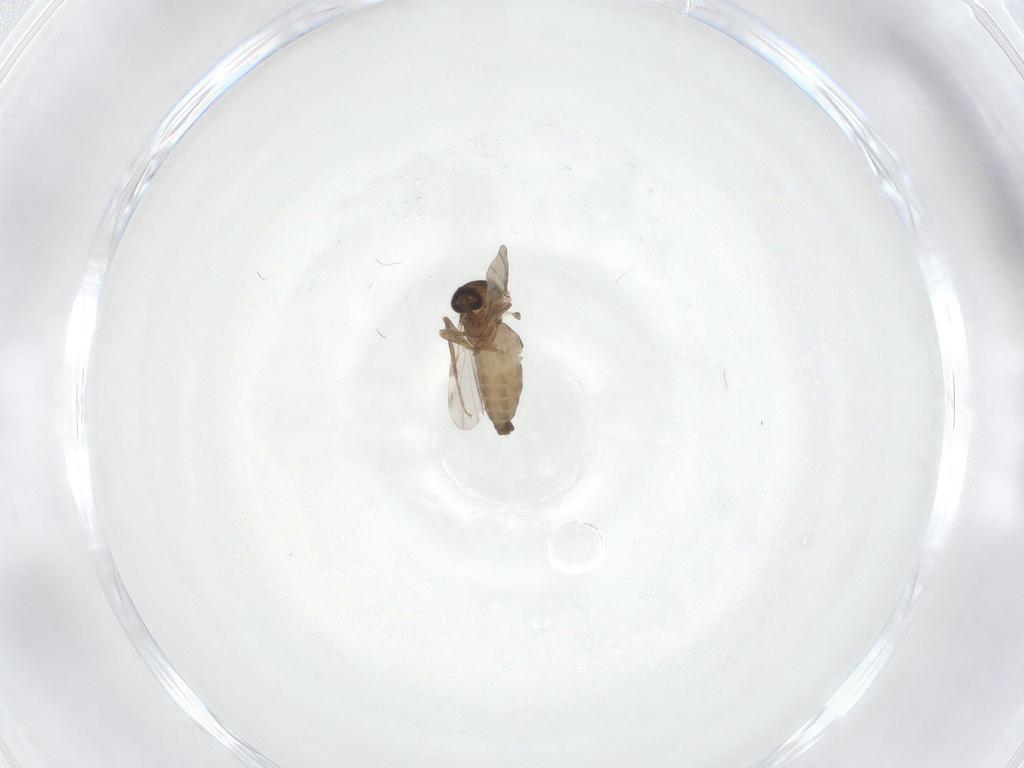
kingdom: Animalia
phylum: Arthropoda
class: Insecta
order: Diptera
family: Ceratopogonidae
